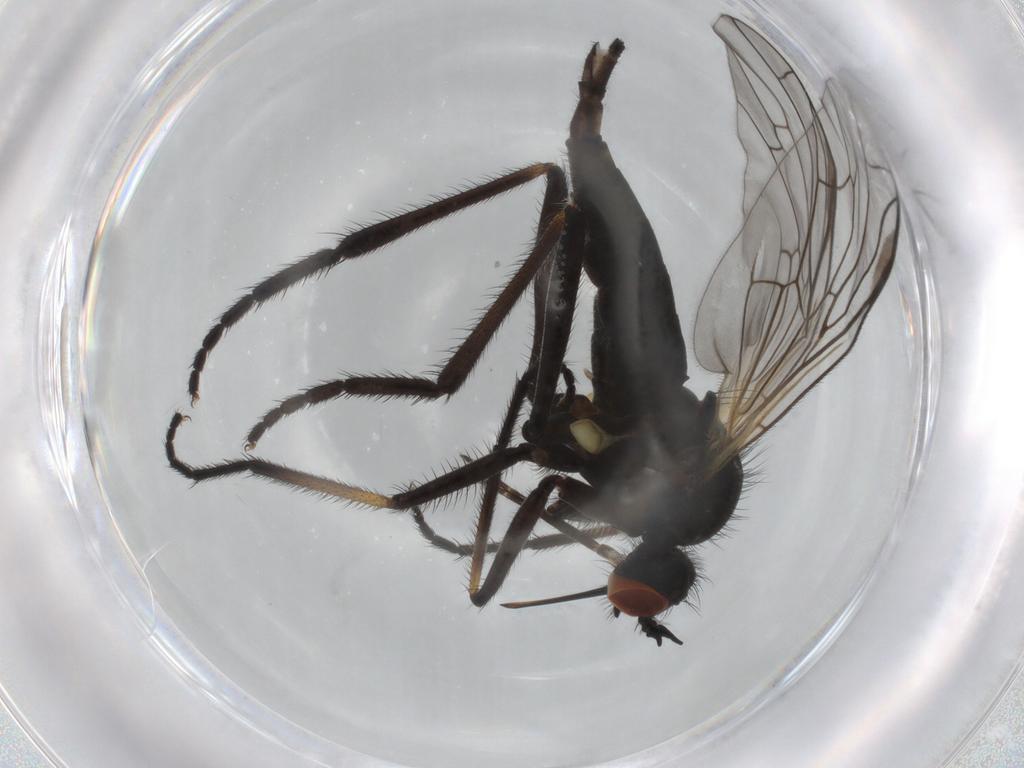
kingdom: Animalia
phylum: Arthropoda
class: Insecta
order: Diptera
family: Empididae
